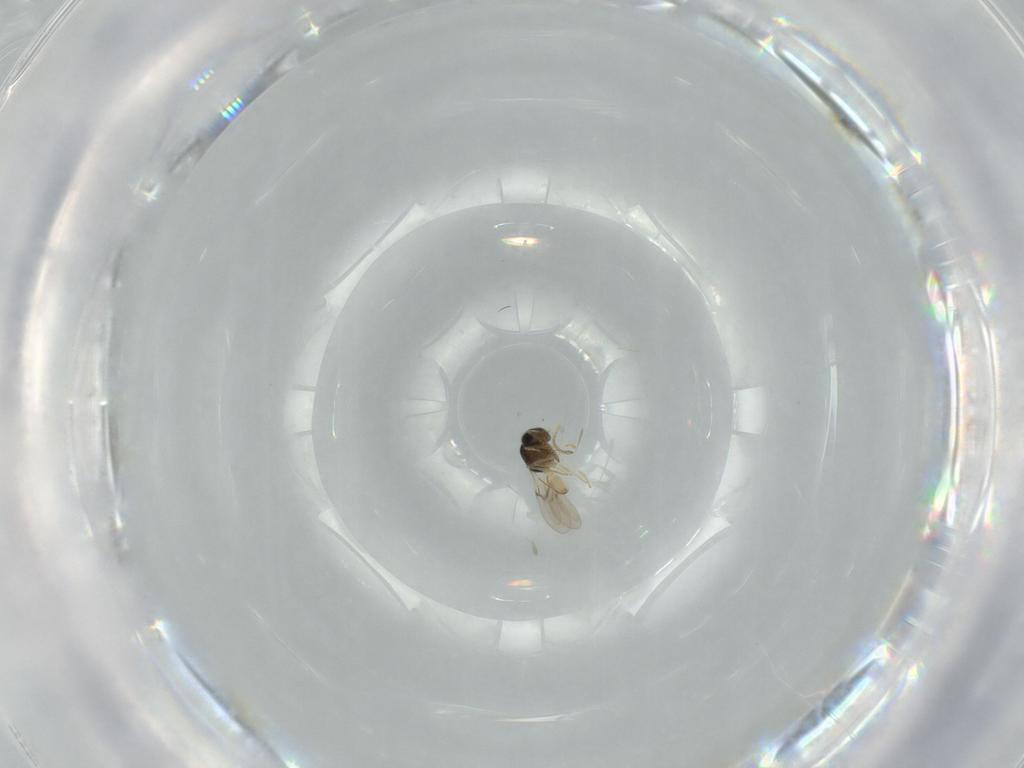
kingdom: Animalia
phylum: Arthropoda
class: Insecta
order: Hymenoptera
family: Scelionidae
